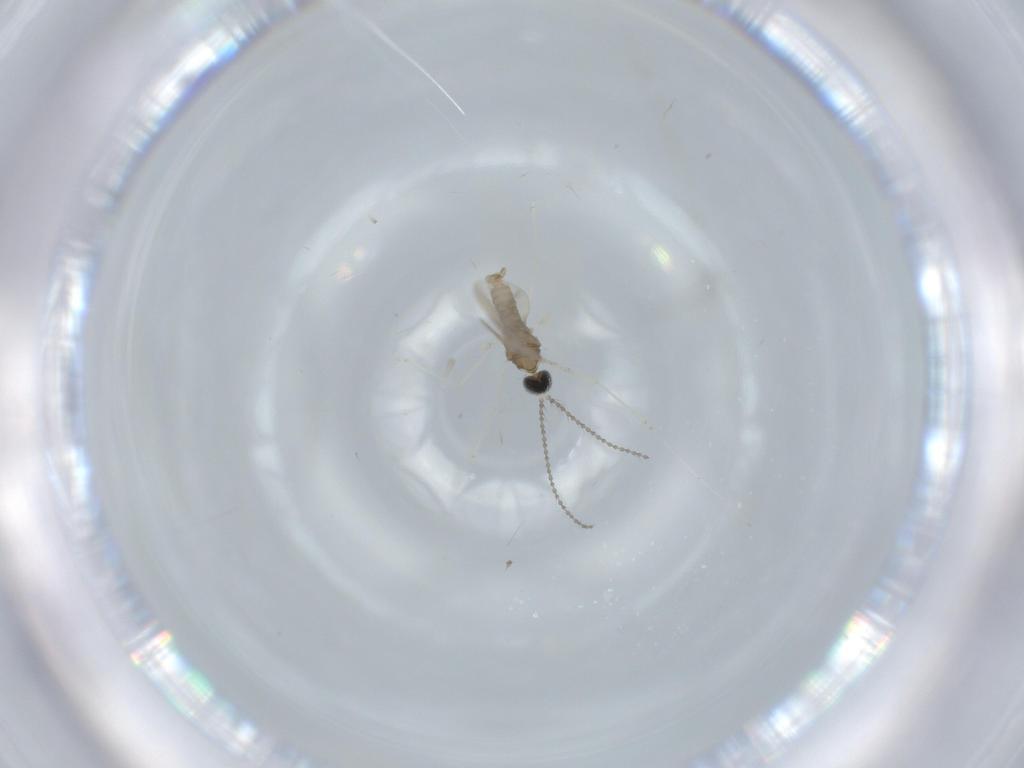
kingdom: Animalia
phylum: Arthropoda
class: Insecta
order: Diptera
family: Cecidomyiidae
